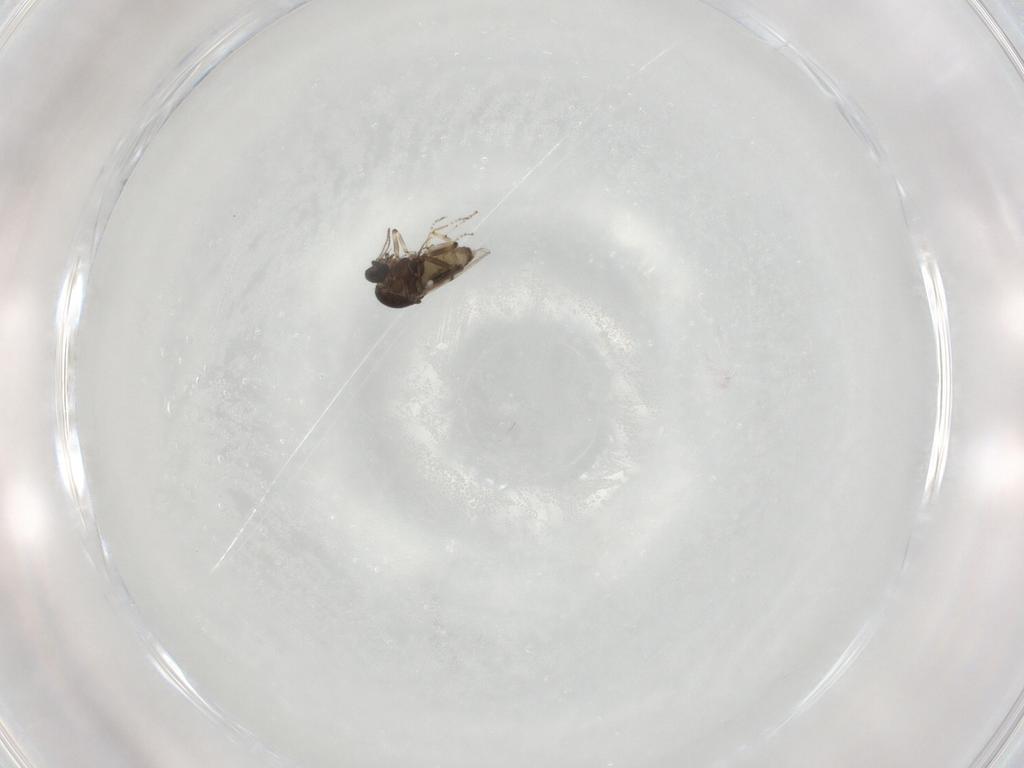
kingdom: Animalia
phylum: Arthropoda
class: Insecta
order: Diptera
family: Ceratopogonidae
